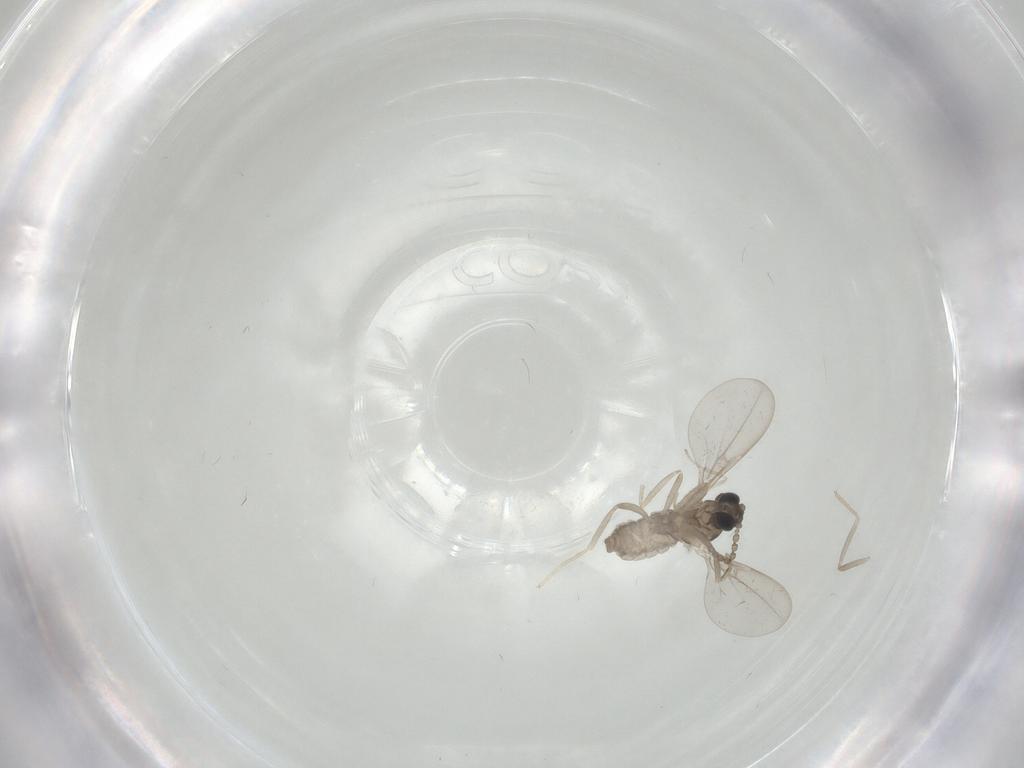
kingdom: Animalia
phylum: Arthropoda
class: Insecta
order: Diptera
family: Cecidomyiidae
